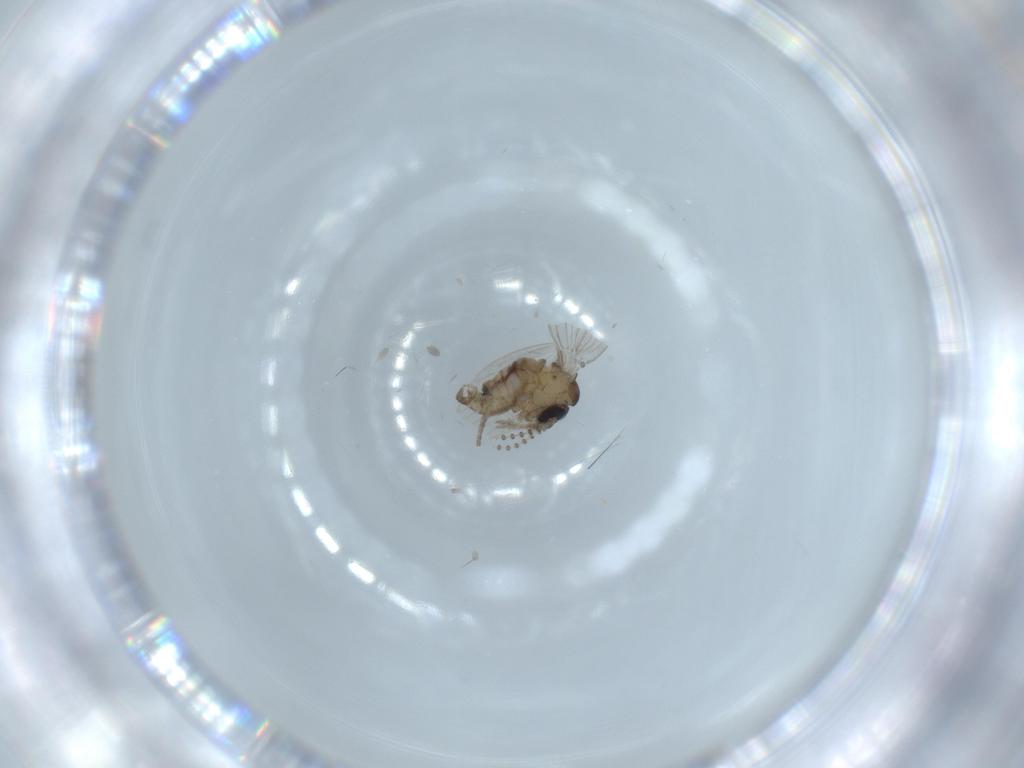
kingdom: Animalia
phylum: Arthropoda
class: Insecta
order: Diptera
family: Psychodidae
